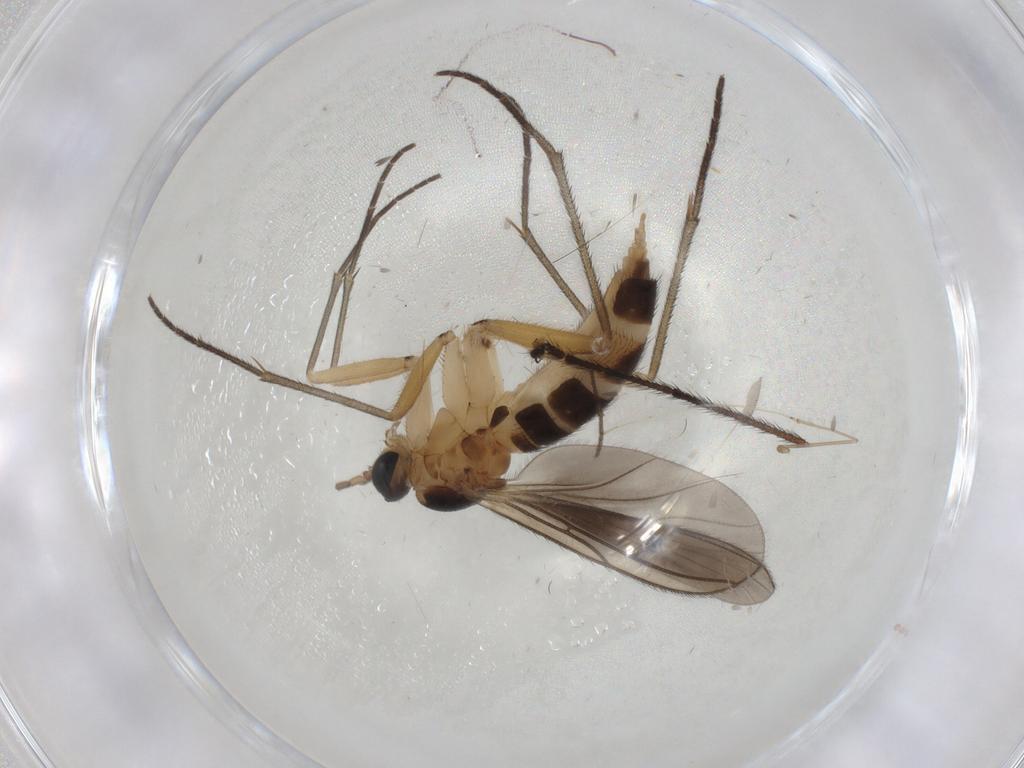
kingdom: Animalia
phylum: Arthropoda
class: Insecta
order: Diptera
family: Sciaridae
